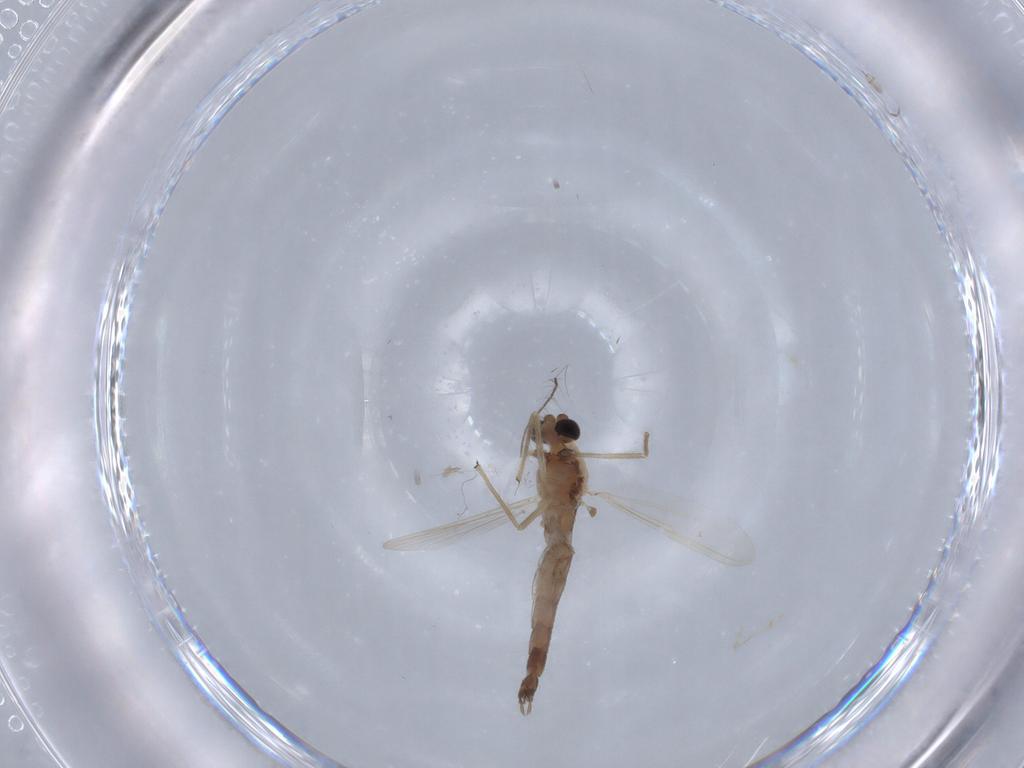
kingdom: Animalia
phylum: Arthropoda
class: Insecta
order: Diptera
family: Chironomidae
